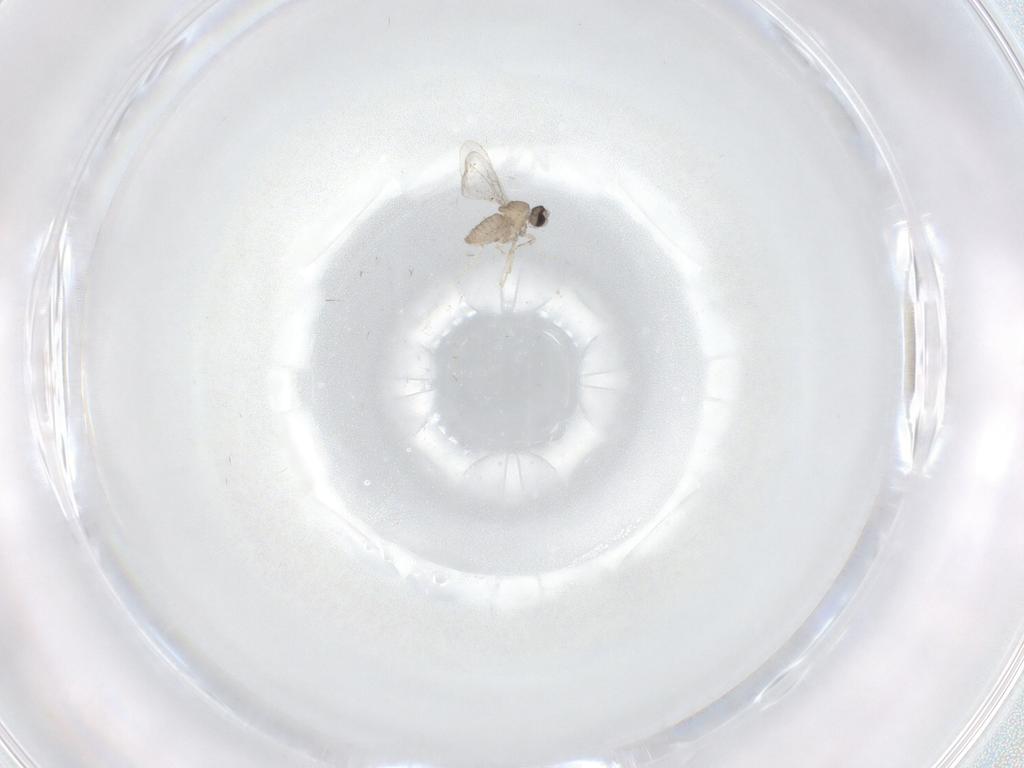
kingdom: Animalia
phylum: Arthropoda
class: Insecta
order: Diptera
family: Cecidomyiidae
